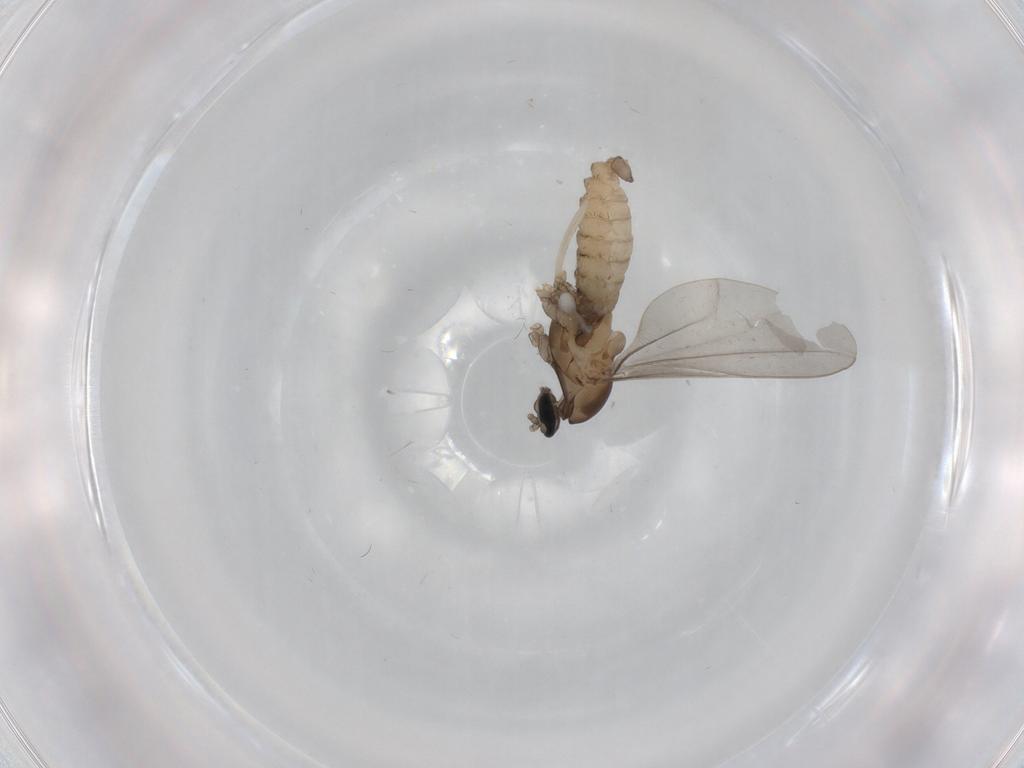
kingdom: Animalia
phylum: Arthropoda
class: Insecta
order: Diptera
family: Cecidomyiidae
